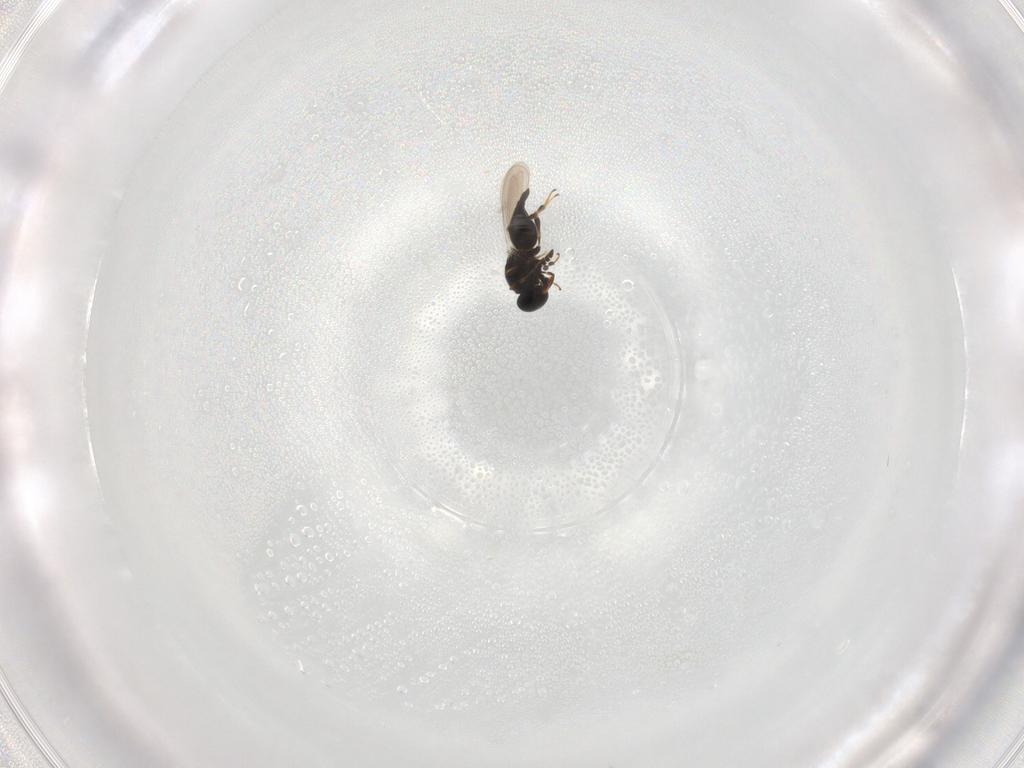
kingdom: Animalia
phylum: Arthropoda
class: Insecta
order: Hymenoptera
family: Platygastridae
